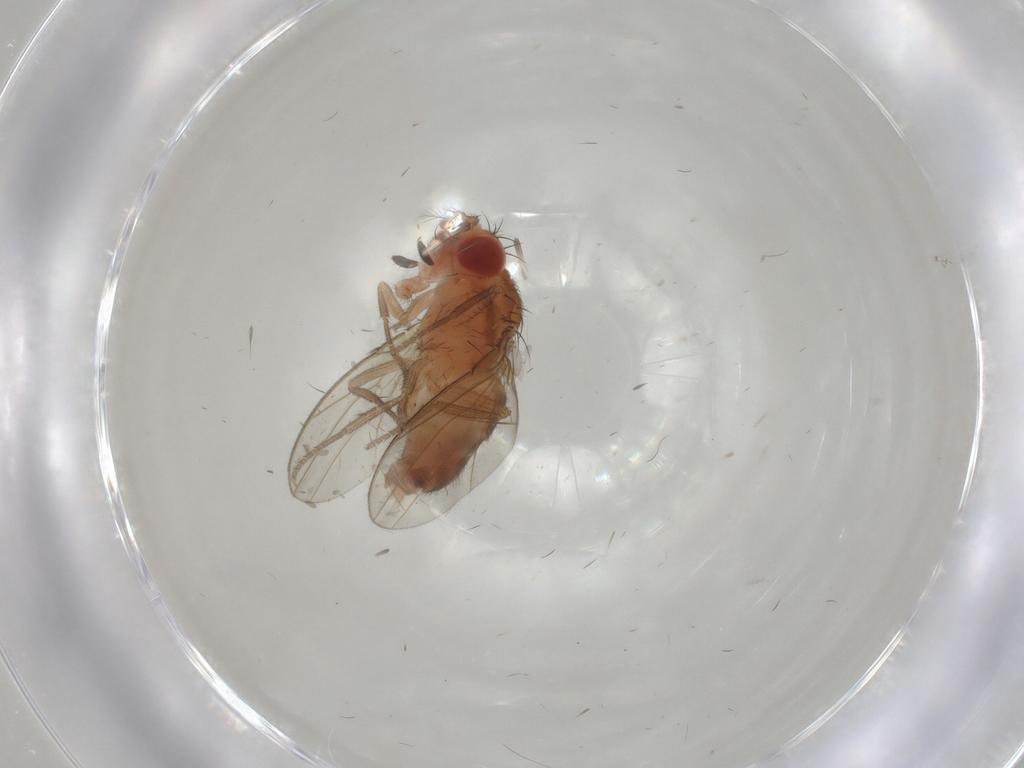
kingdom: Animalia
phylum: Arthropoda
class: Insecta
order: Diptera
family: Drosophilidae
